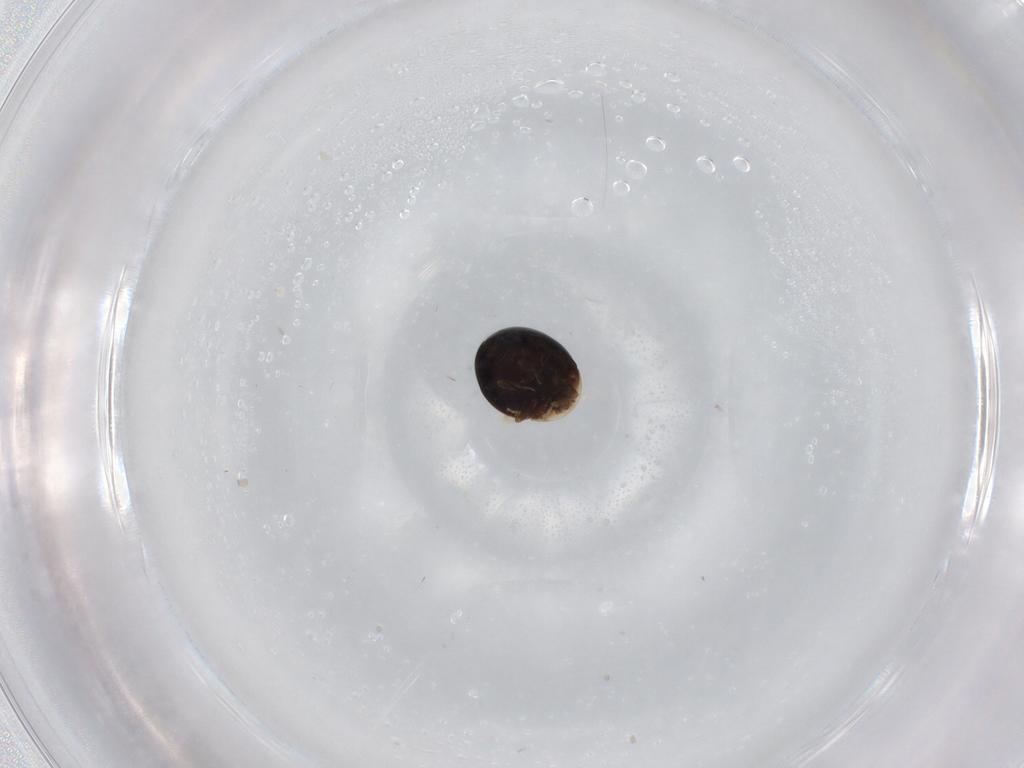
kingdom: Animalia
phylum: Arthropoda
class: Insecta
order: Coleoptera
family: Corylophidae
